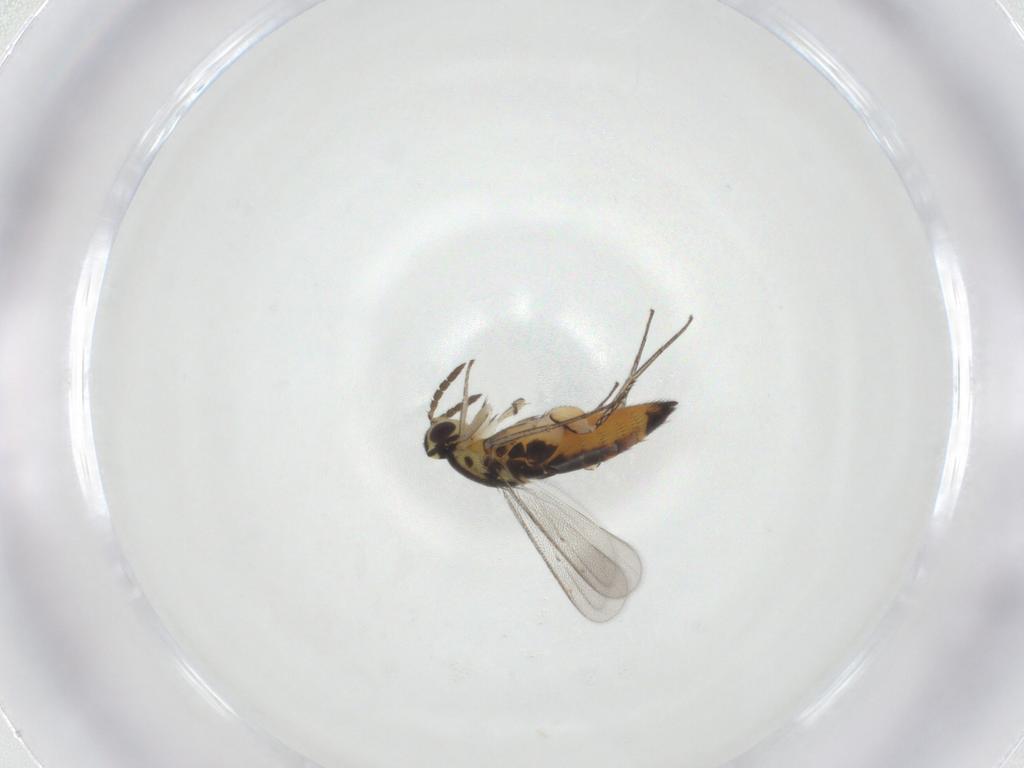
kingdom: Animalia
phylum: Arthropoda
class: Insecta
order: Hymenoptera
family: Eulophidae
